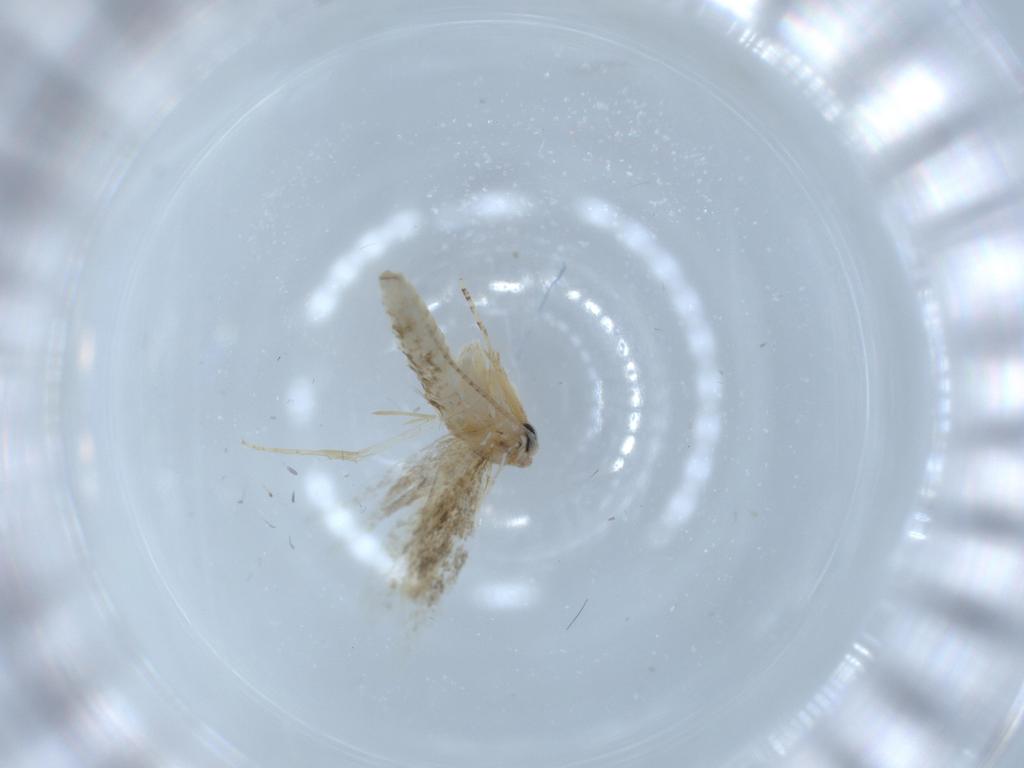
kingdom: Animalia
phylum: Arthropoda
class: Insecta
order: Lepidoptera
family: Bucculatricidae
